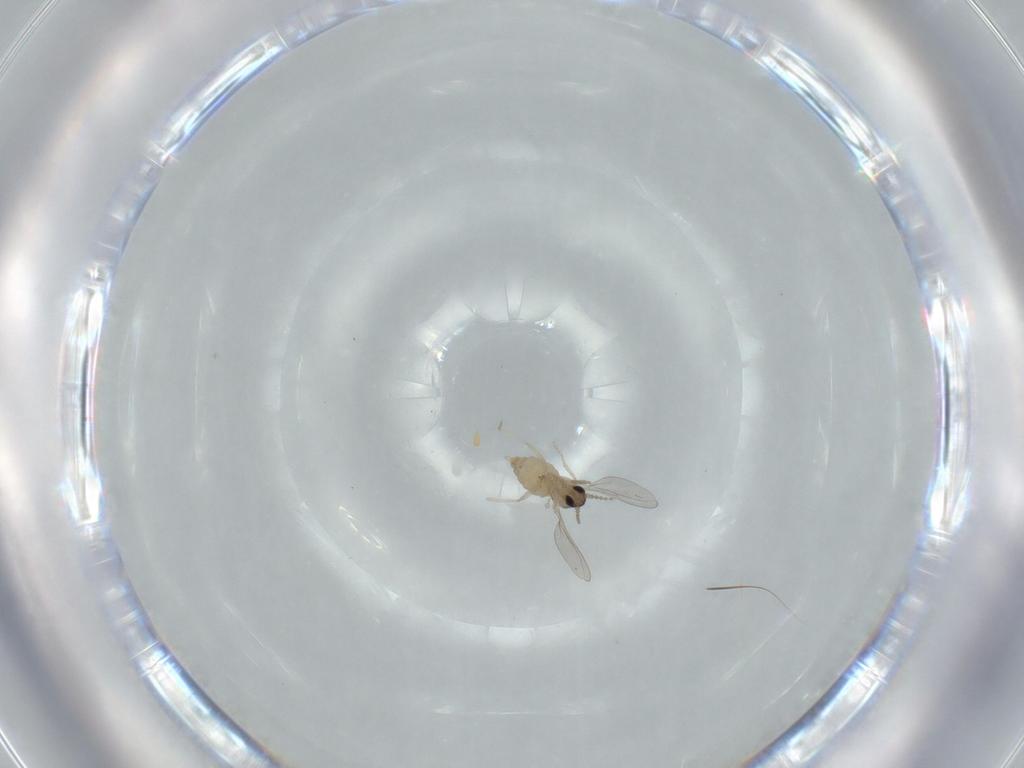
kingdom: Animalia
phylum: Arthropoda
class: Insecta
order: Diptera
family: Cecidomyiidae
